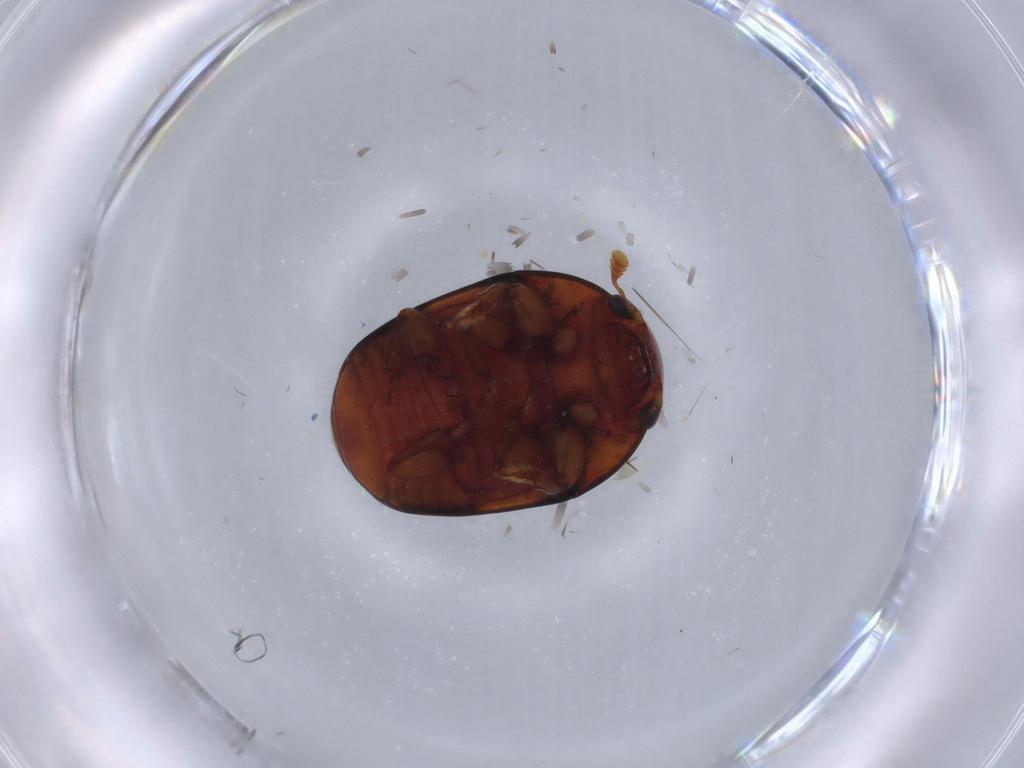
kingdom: Animalia
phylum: Arthropoda
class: Insecta
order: Coleoptera
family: Nitidulidae
